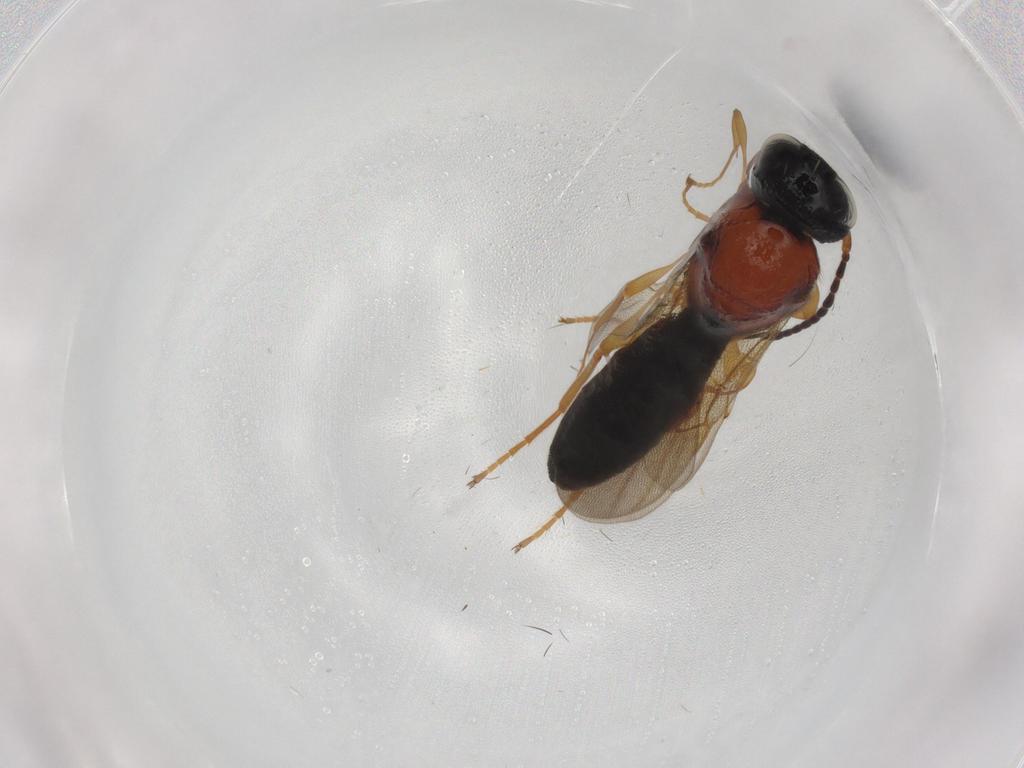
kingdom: Animalia
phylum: Arthropoda
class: Insecta
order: Hymenoptera
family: Scelionidae
